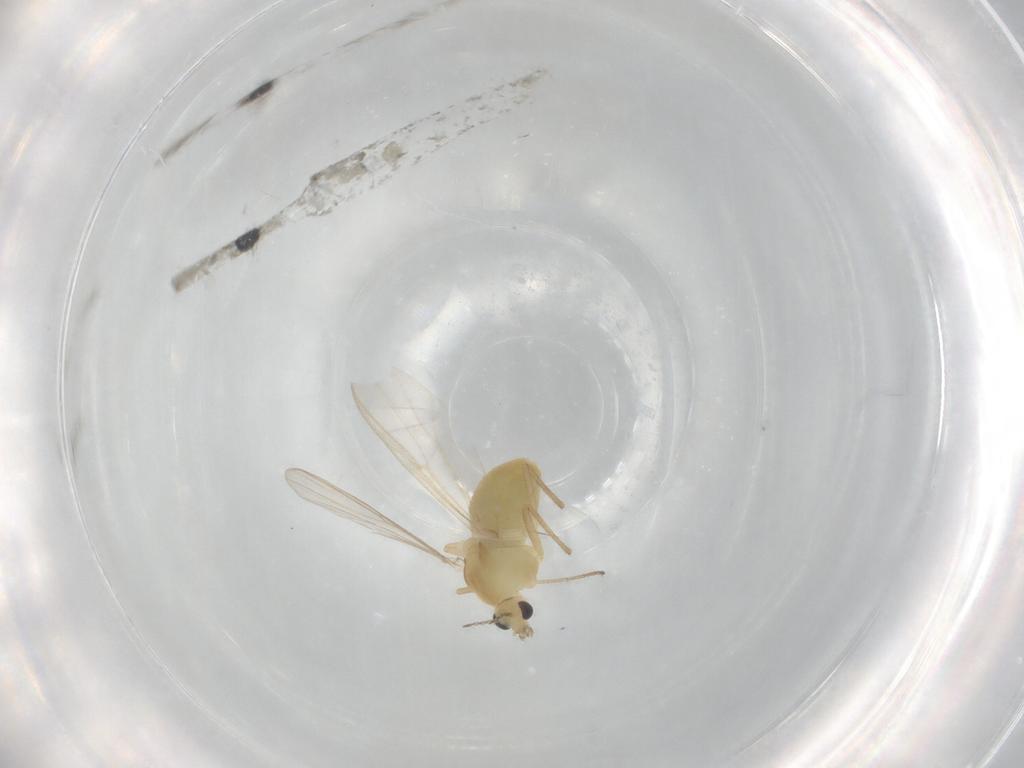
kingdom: Animalia
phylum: Arthropoda
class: Insecta
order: Diptera
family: Chironomidae
